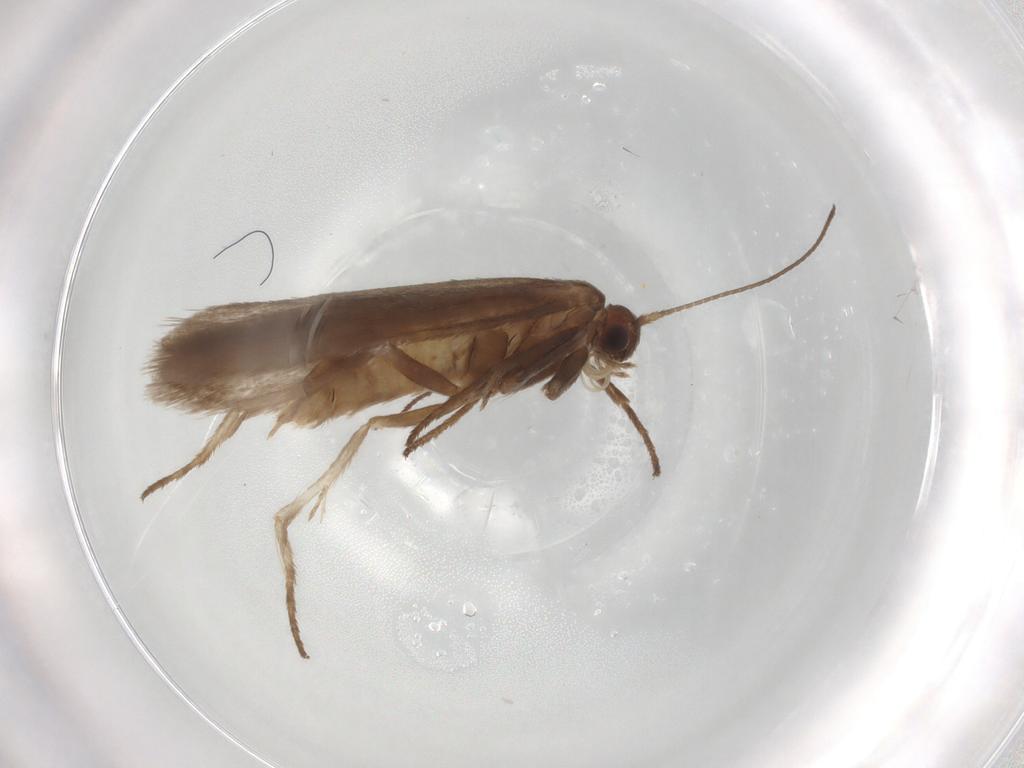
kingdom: Animalia
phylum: Arthropoda
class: Insecta
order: Lepidoptera
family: Limacodidae
